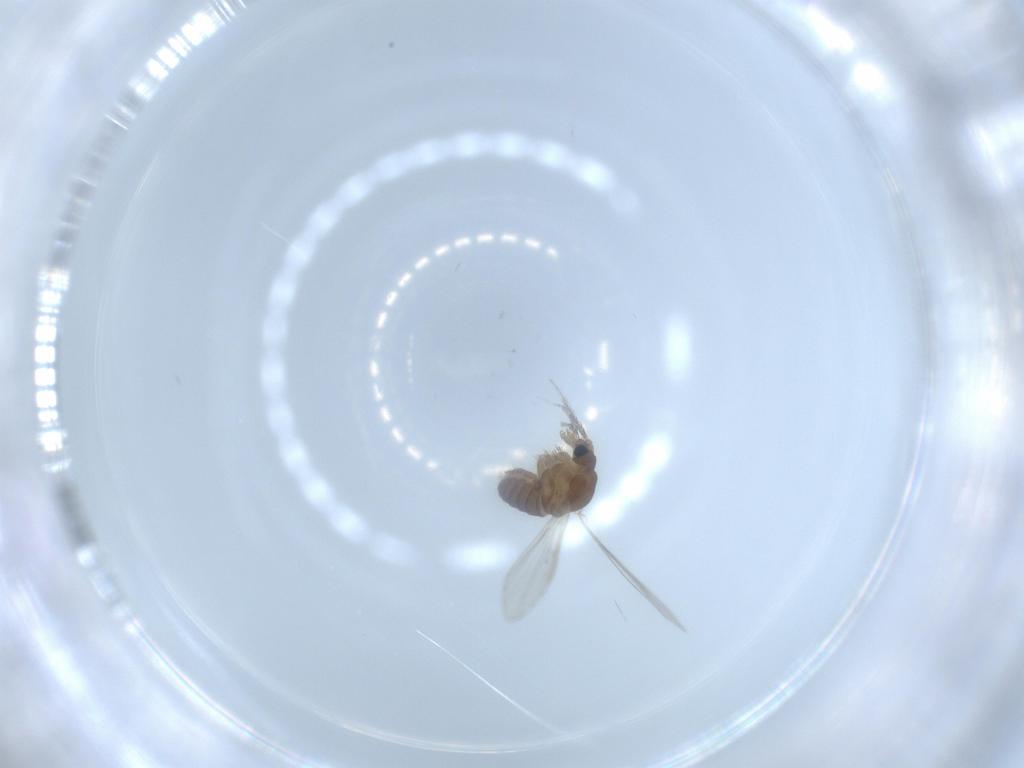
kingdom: Animalia
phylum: Arthropoda
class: Insecta
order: Diptera
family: Psychodidae
